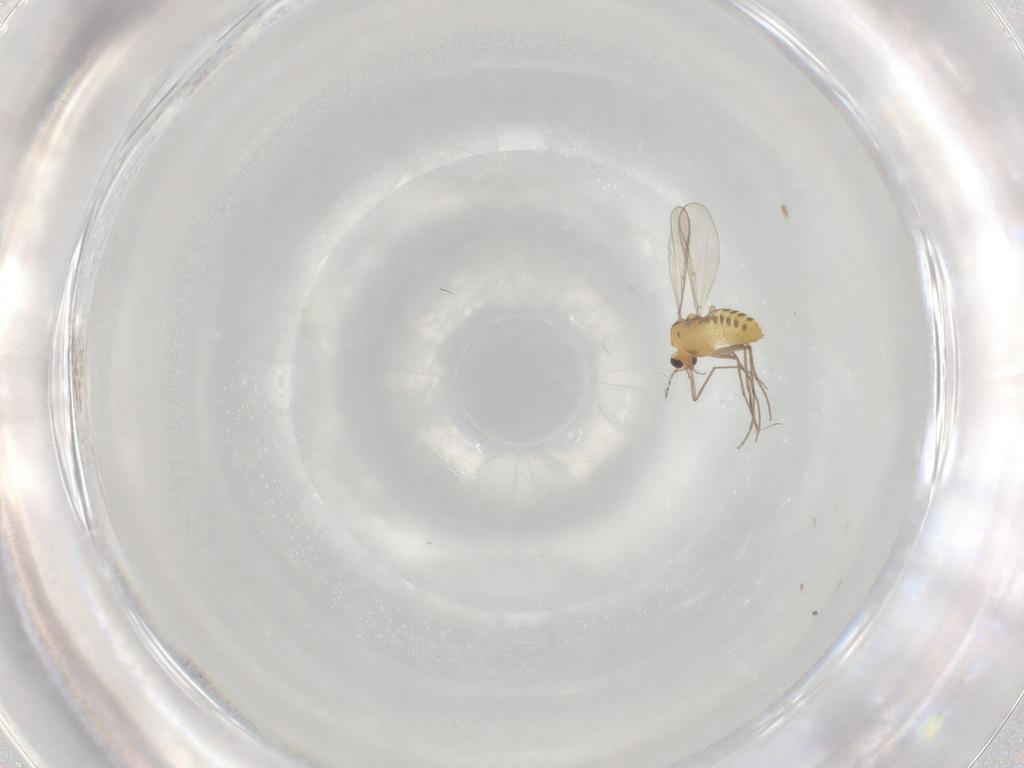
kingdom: Animalia
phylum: Arthropoda
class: Insecta
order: Diptera
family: Chironomidae
